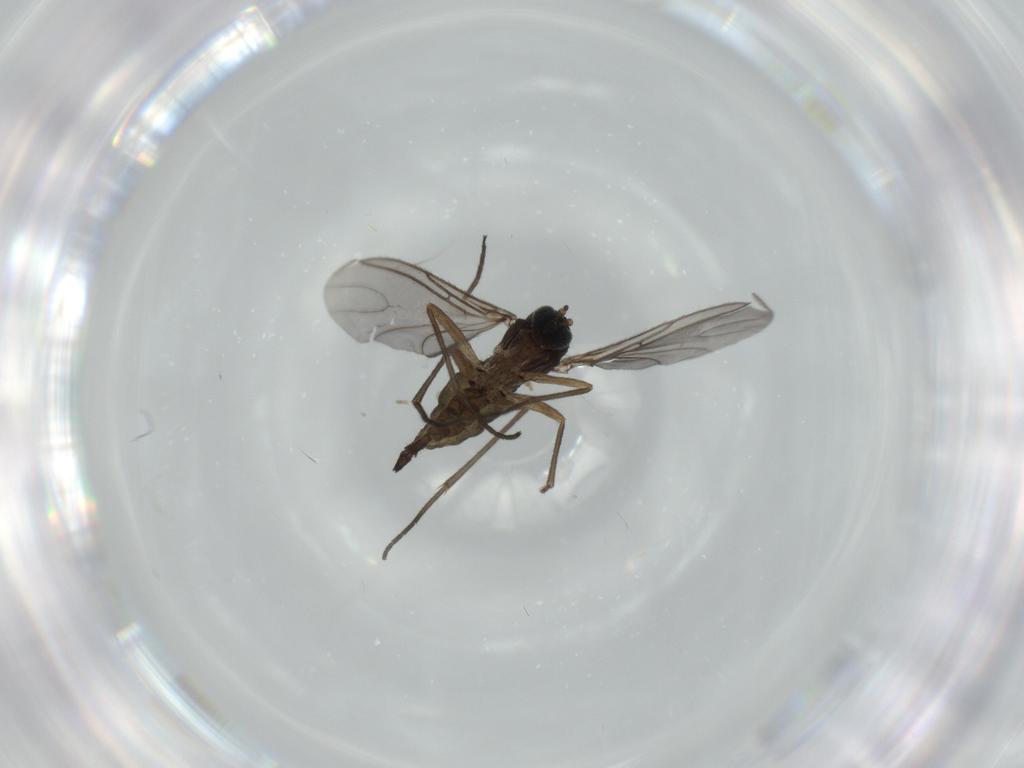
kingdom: Animalia
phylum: Arthropoda
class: Insecta
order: Diptera
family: Sciaridae
